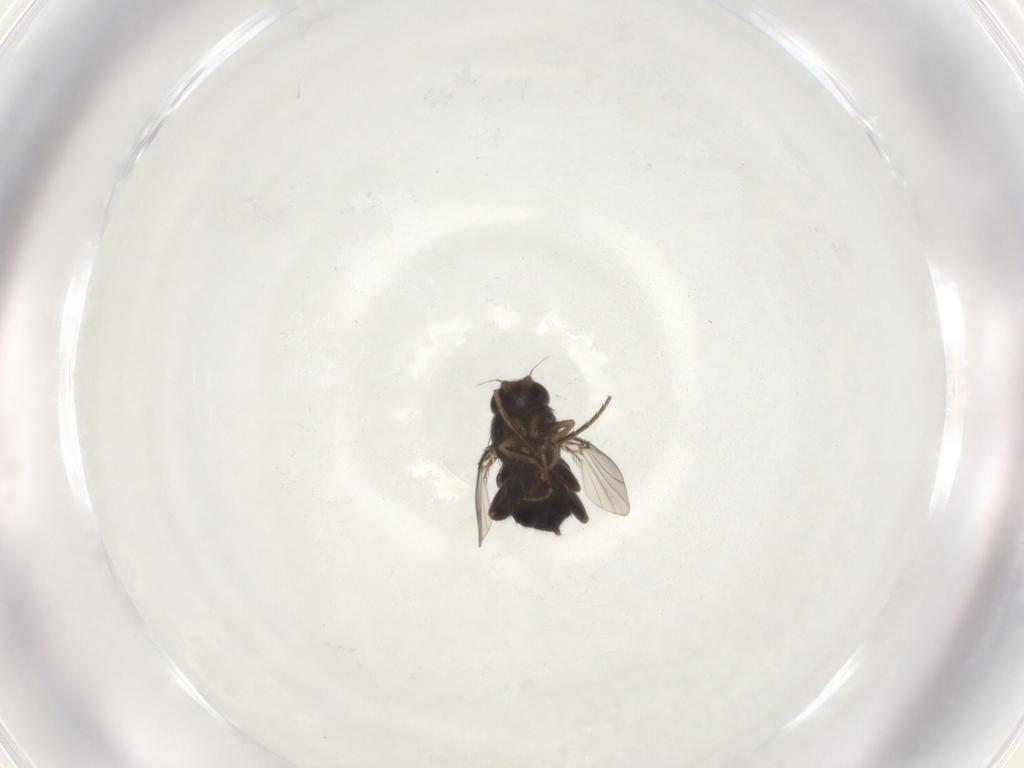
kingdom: Animalia
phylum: Arthropoda
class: Insecta
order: Diptera
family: Phoridae
